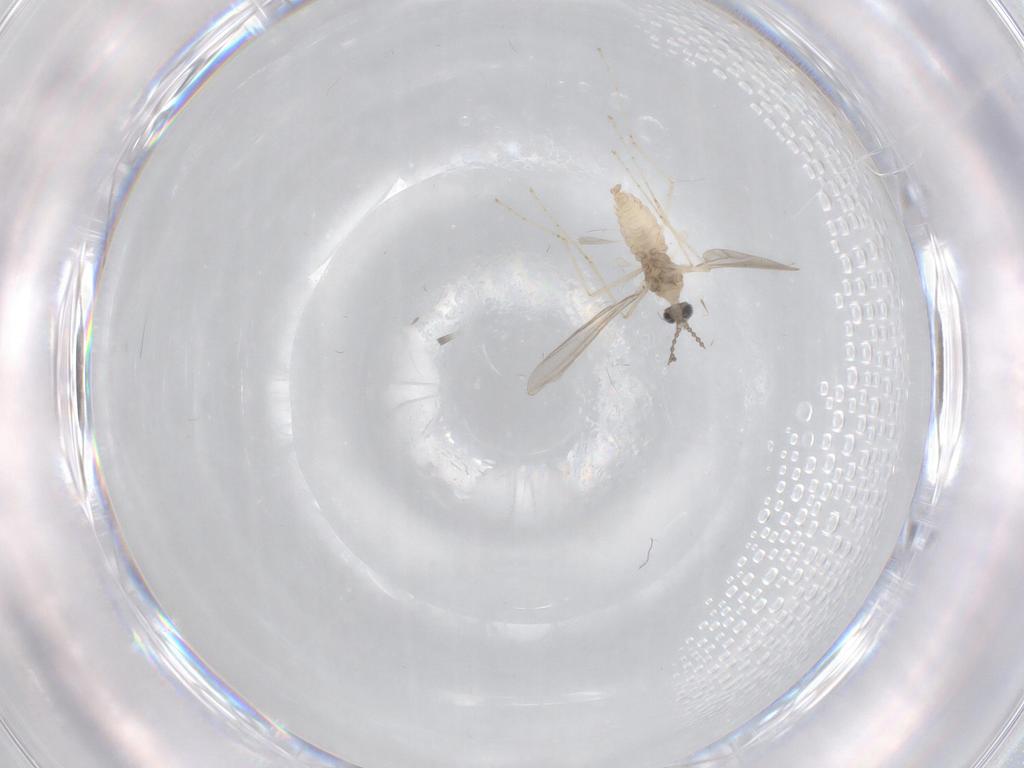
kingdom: Animalia
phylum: Arthropoda
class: Insecta
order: Diptera
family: Cecidomyiidae
